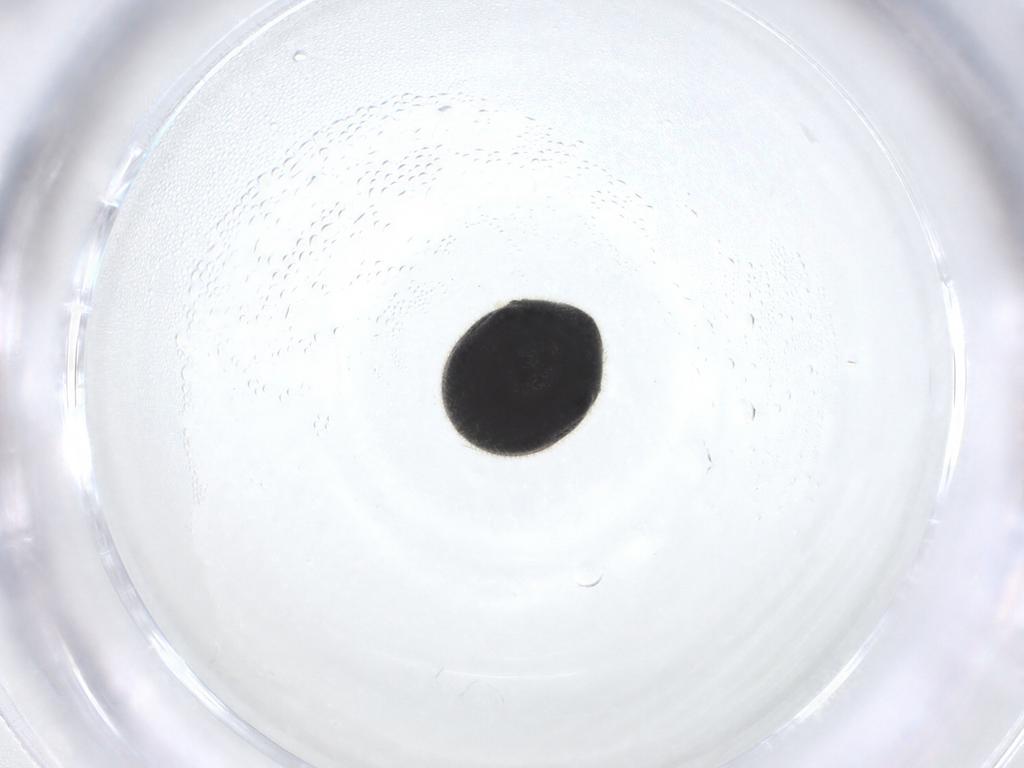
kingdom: Animalia
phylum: Arthropoda
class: Insecta
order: Coleoptera
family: Ptinidae
